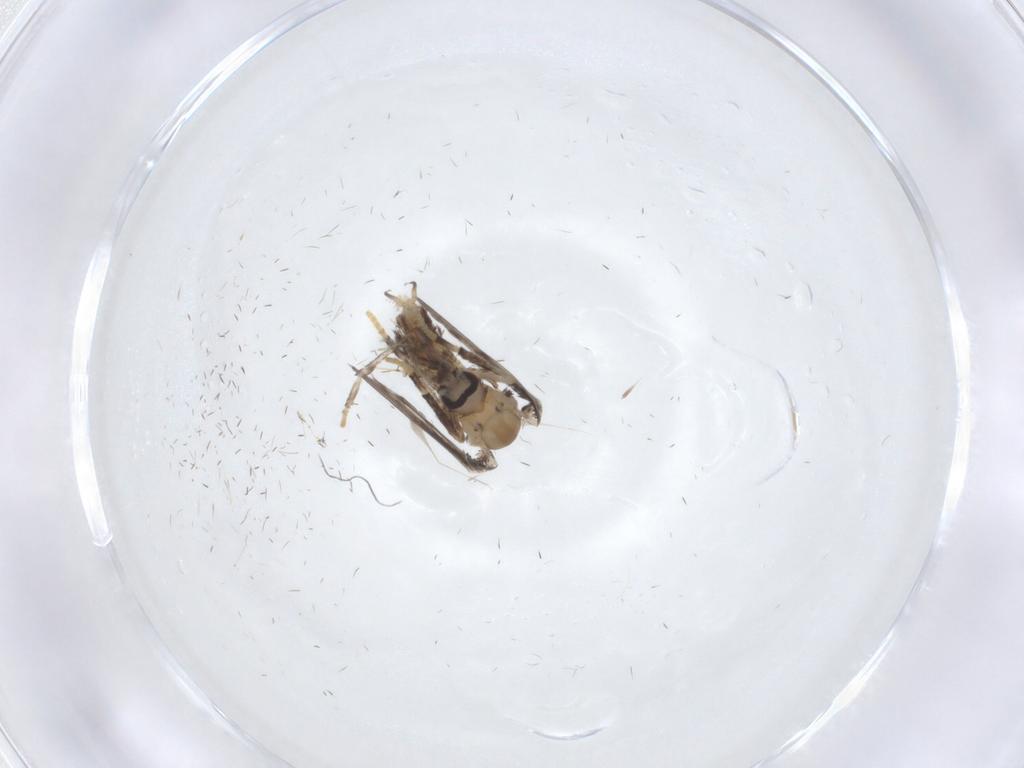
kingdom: Animalia
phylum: Arthropoda
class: Insecta
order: Diptera
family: Psychodidae
